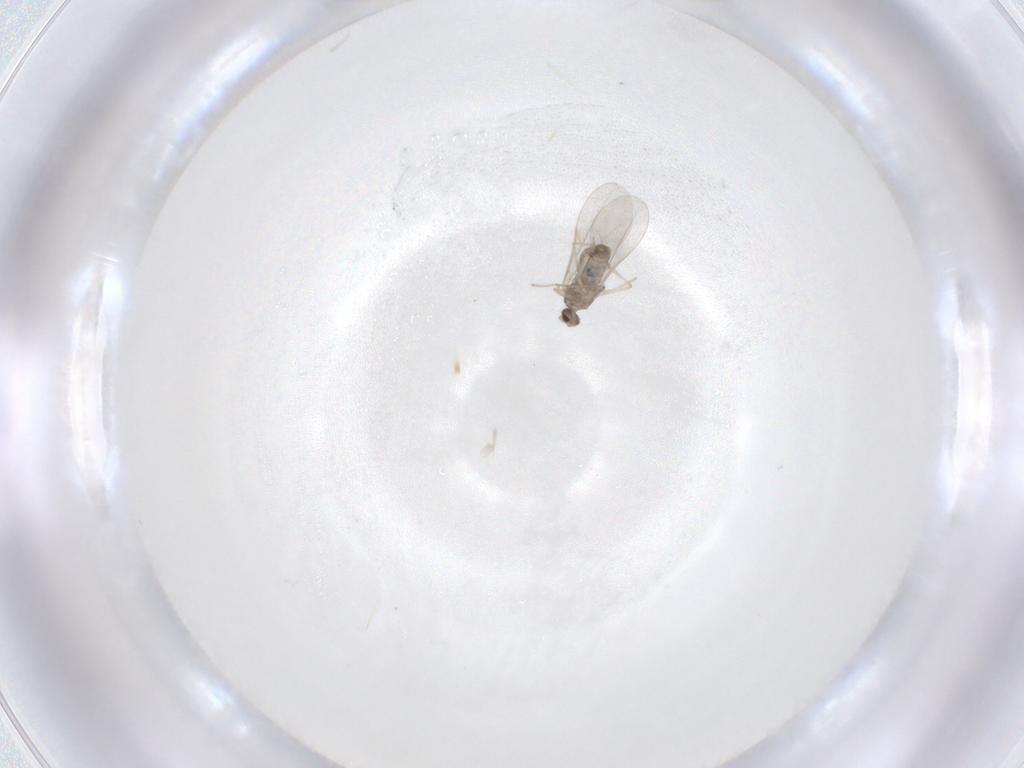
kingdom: Animalia
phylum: Arthropoda
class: Insecta
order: Diptera
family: Cecidomyiidae
